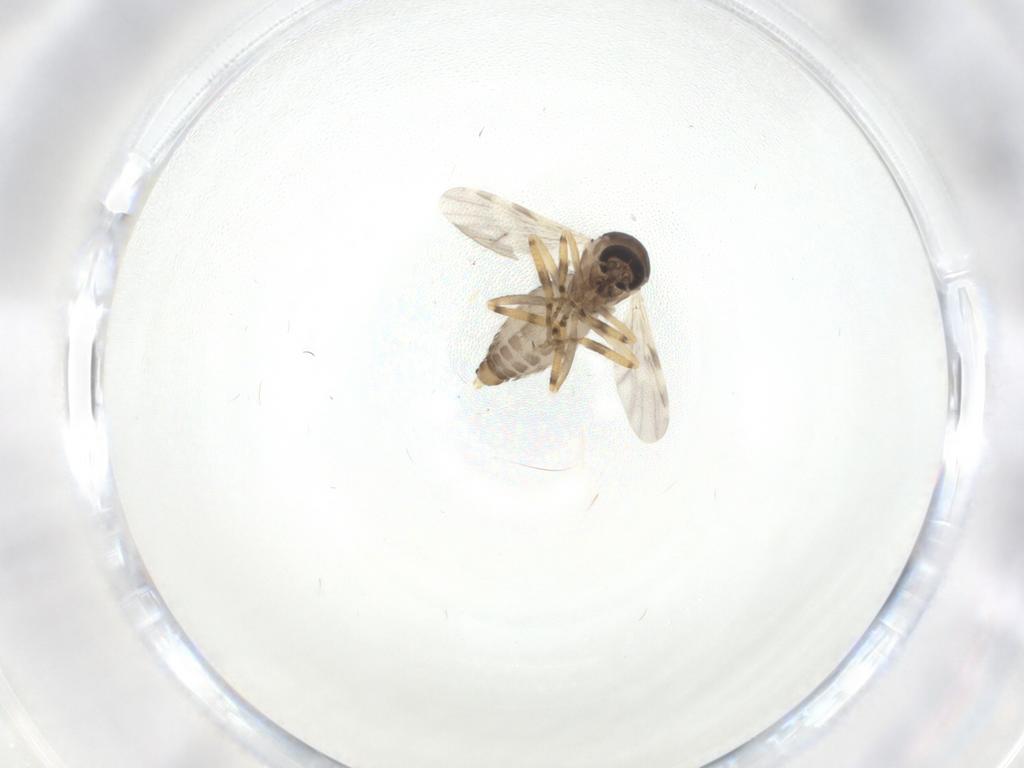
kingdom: Animalia
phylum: Arthropoda
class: Insecta
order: Diptera
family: Ceratopogonidae
